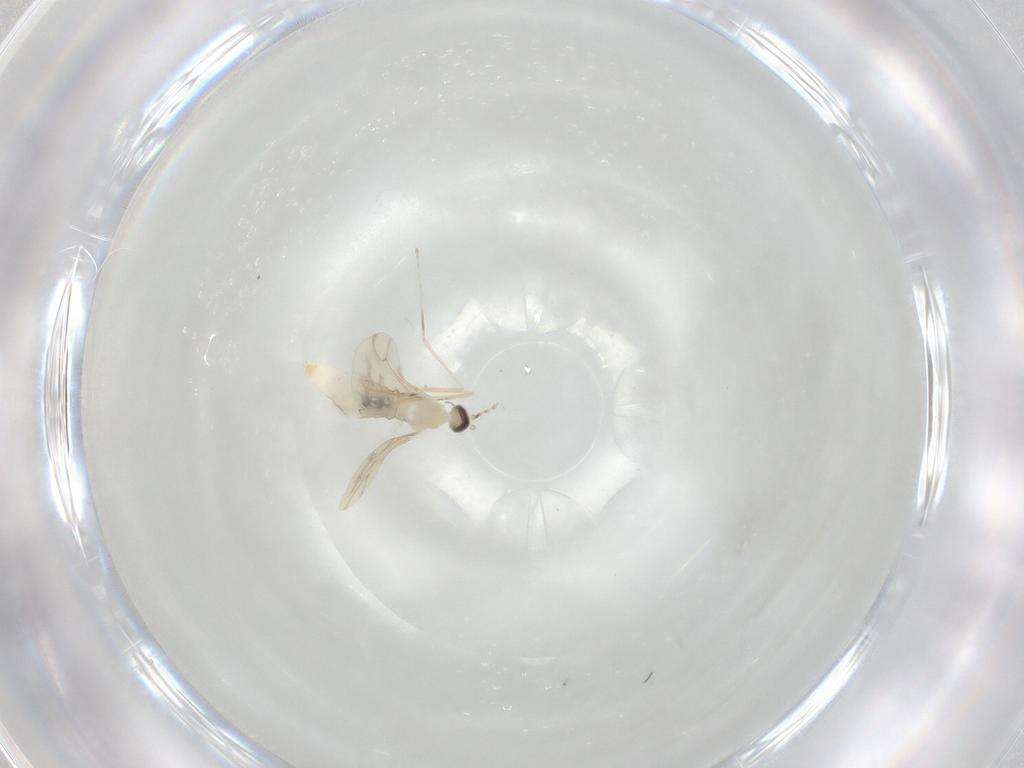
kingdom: Animalia
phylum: Arthropoda
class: Insecta
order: Diptera
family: Cecidomyiidae
